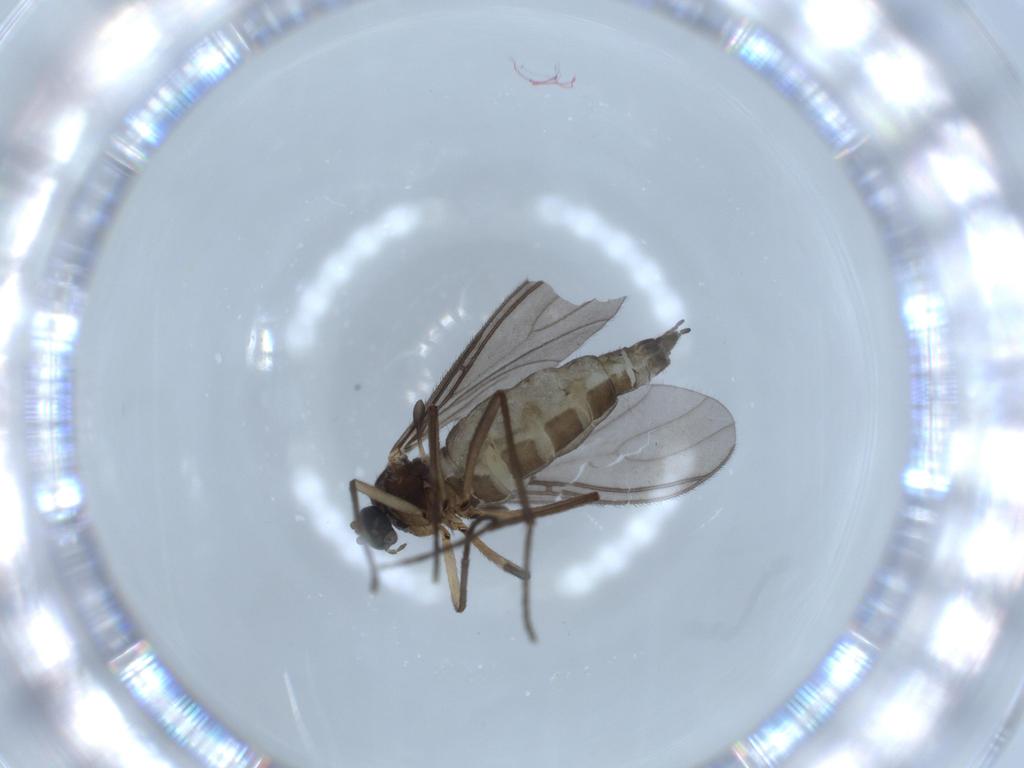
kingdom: Animalia
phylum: Arthropoda
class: Insecta
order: Diptera
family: Sciaridae
